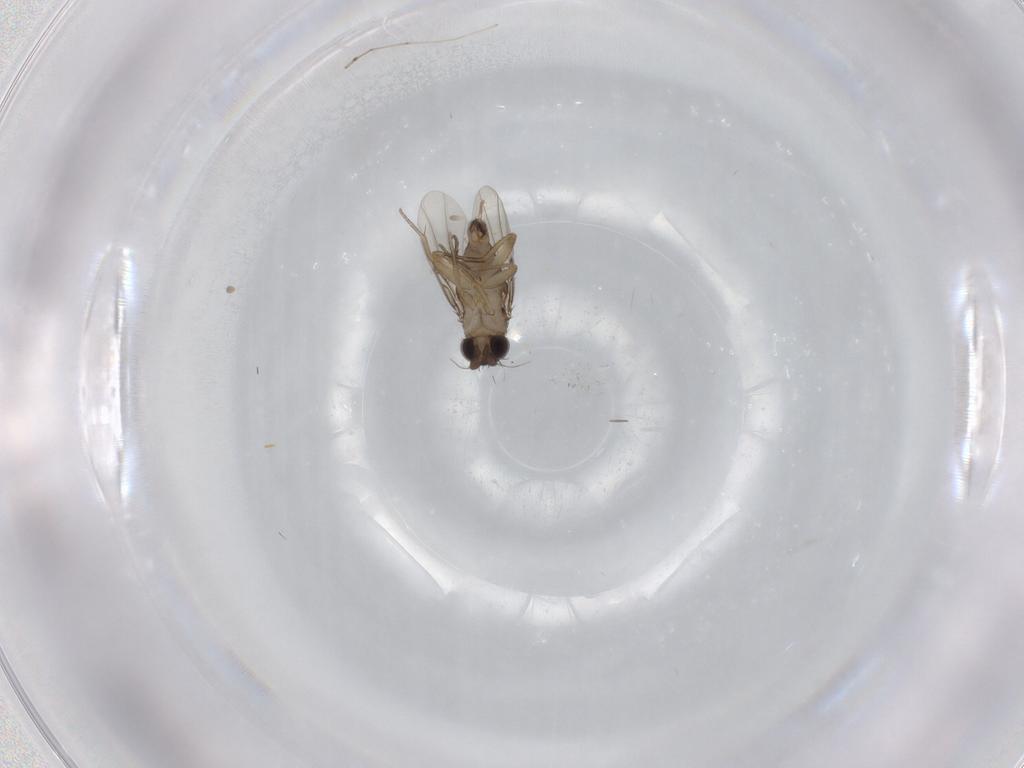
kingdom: Animalia
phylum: Arthropoda
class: Insecta
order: Diptera
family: Phoridae
